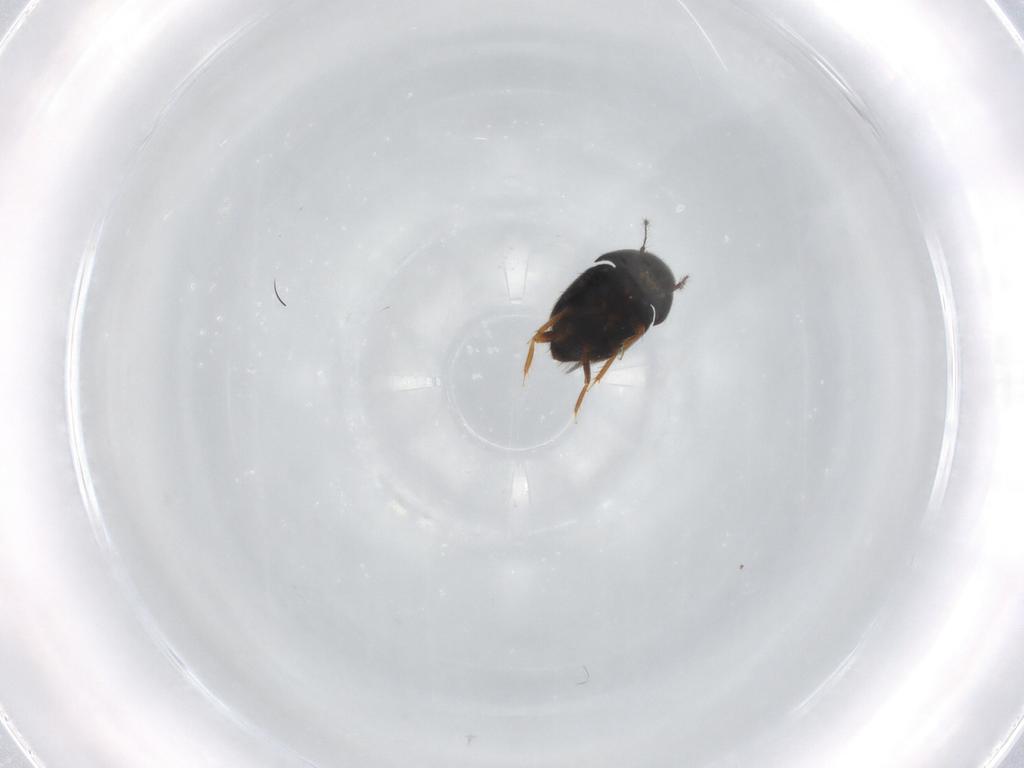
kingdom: Animalia
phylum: Arthropoda
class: Insecta
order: Coleoptera
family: Ptiliidae
